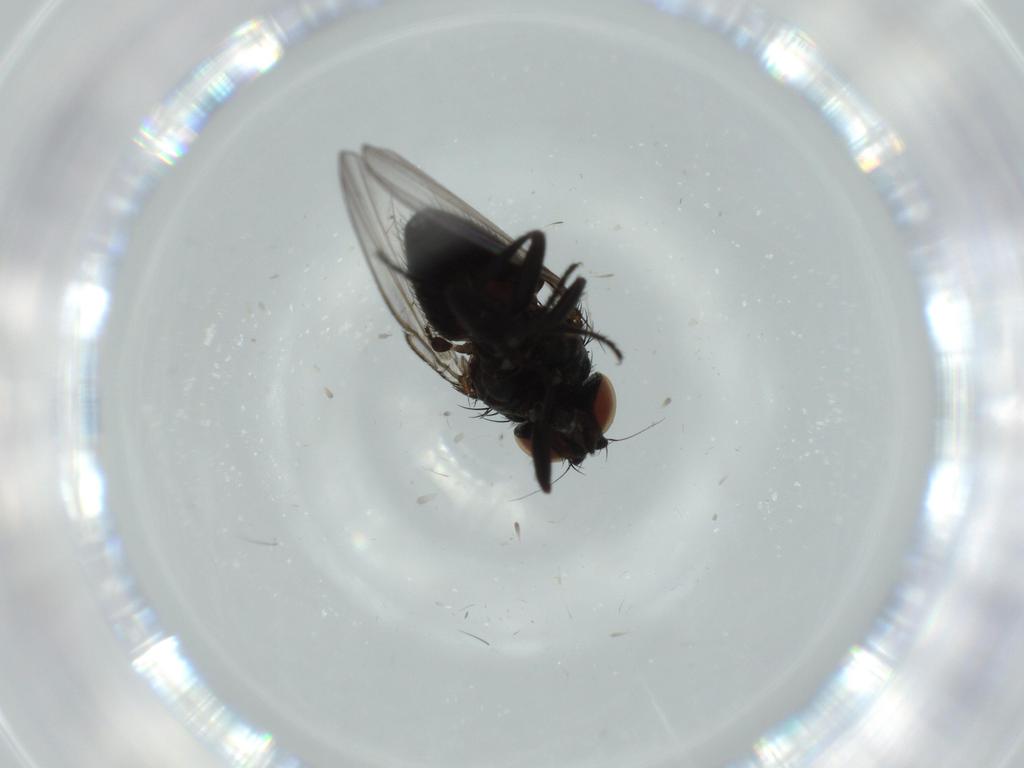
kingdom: Animalia
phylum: Arthropoda
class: Insecta
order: Diptera
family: Milichiidae
